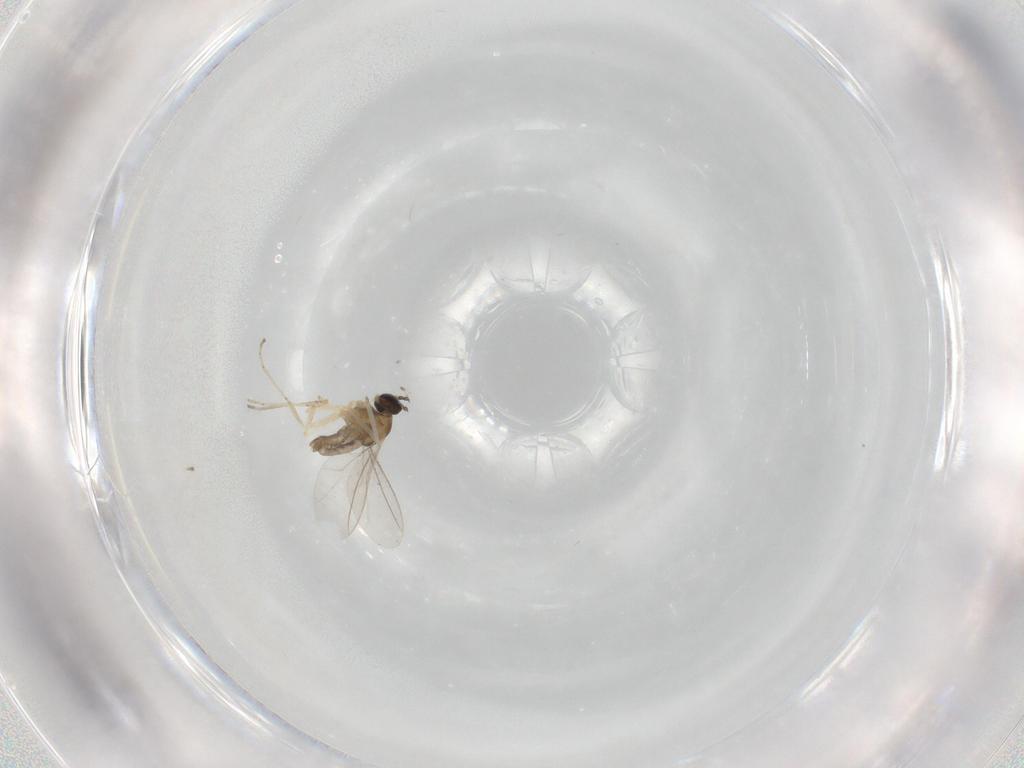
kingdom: Animalia
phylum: Arthropoda
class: Insecta
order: Diptera
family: Cecidomyiidae
